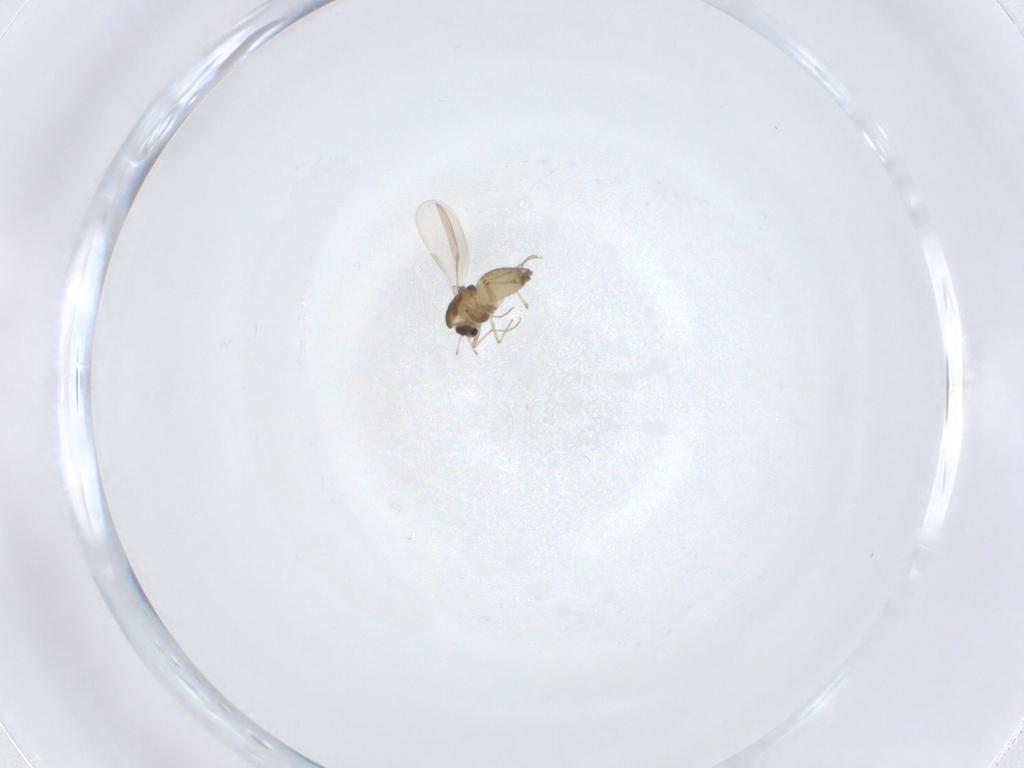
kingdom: Animalia
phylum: Arthropoda
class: Insecta
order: Diptera
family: Chironomidae
